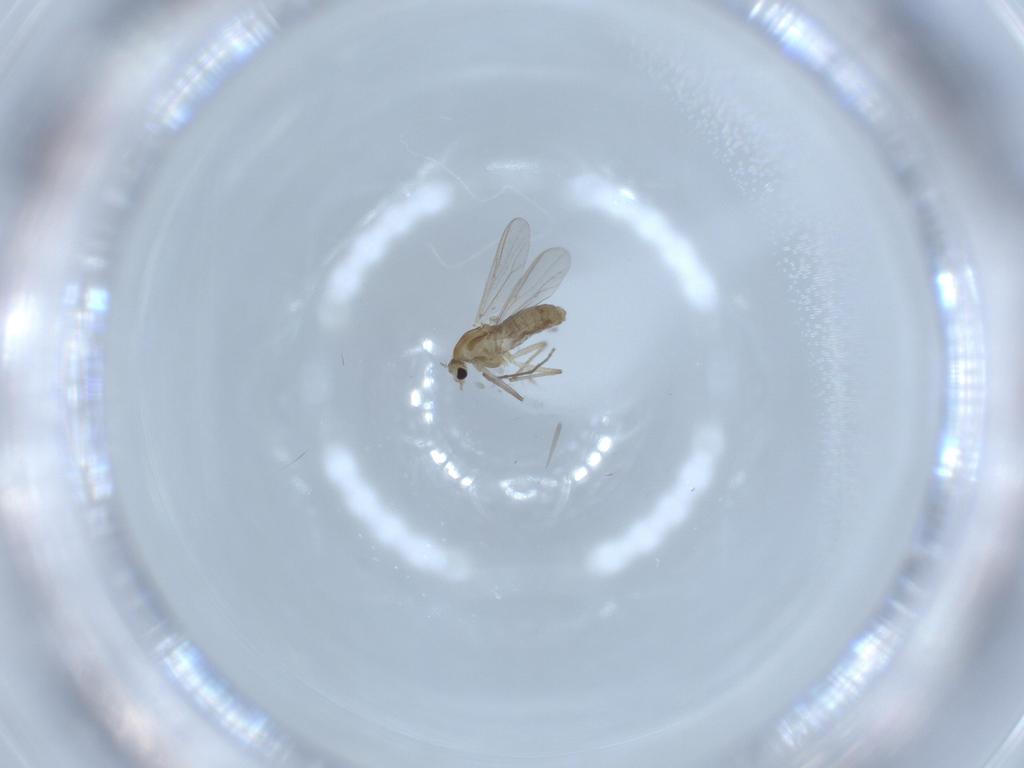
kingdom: Animalia
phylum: Arthropoda
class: Insecta
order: Diptera
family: Chironomidae
